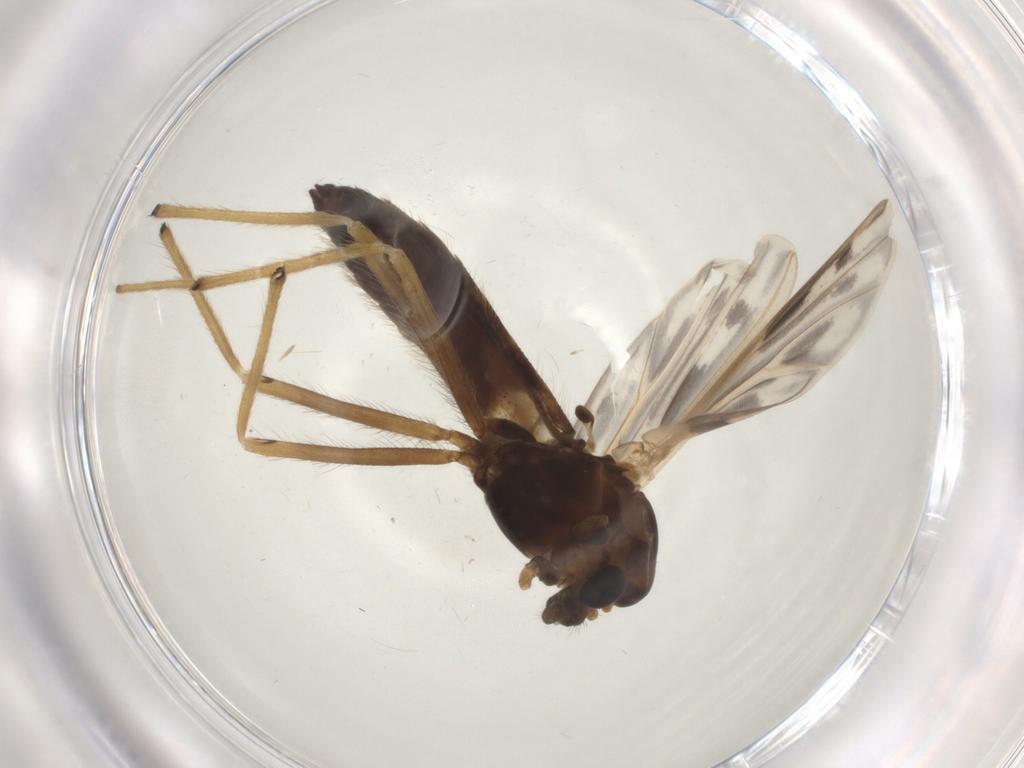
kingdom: Animalia
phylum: Arthropoda
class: Insecta
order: Diptera
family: Chironomidae
